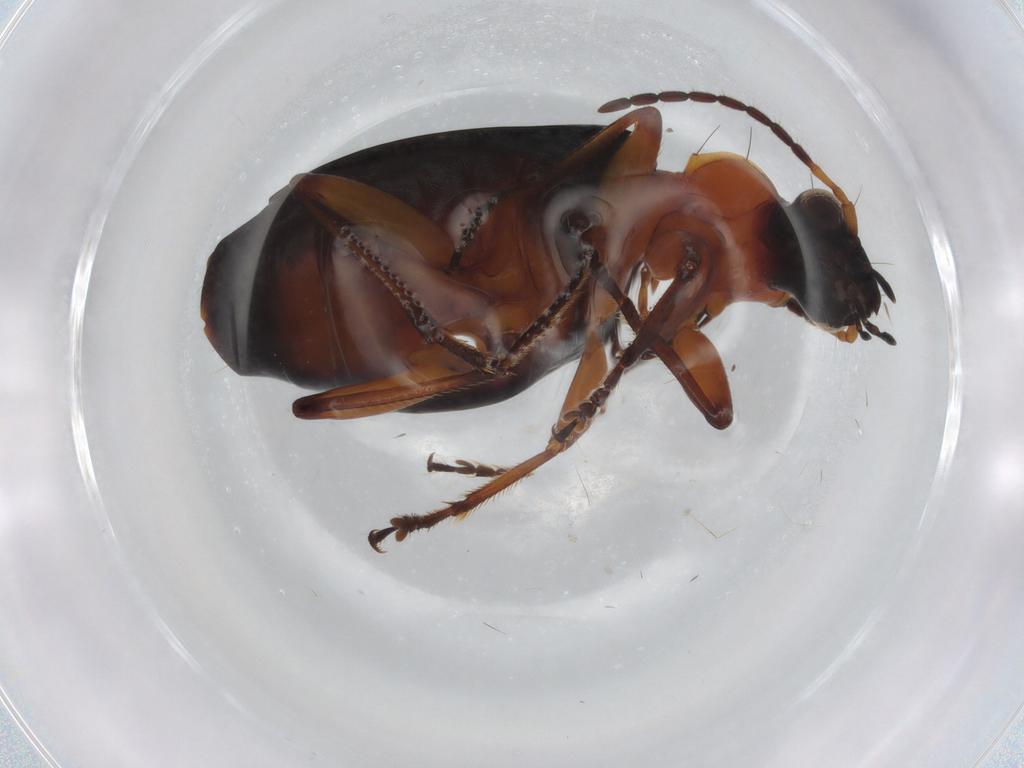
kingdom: Animalia
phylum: Arthropoda
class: Insecta
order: Coleoptera
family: Carabidae
